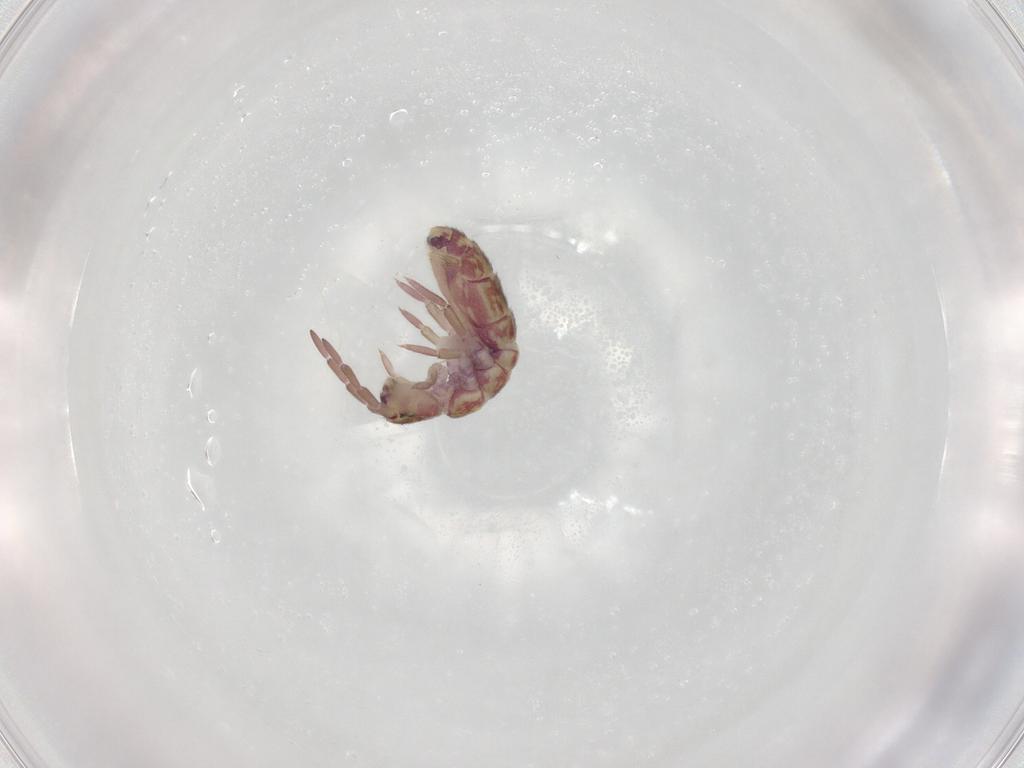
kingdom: Animalia
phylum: Arthropoda
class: Collembola
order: Entomobryomorpha
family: Isotomidae
